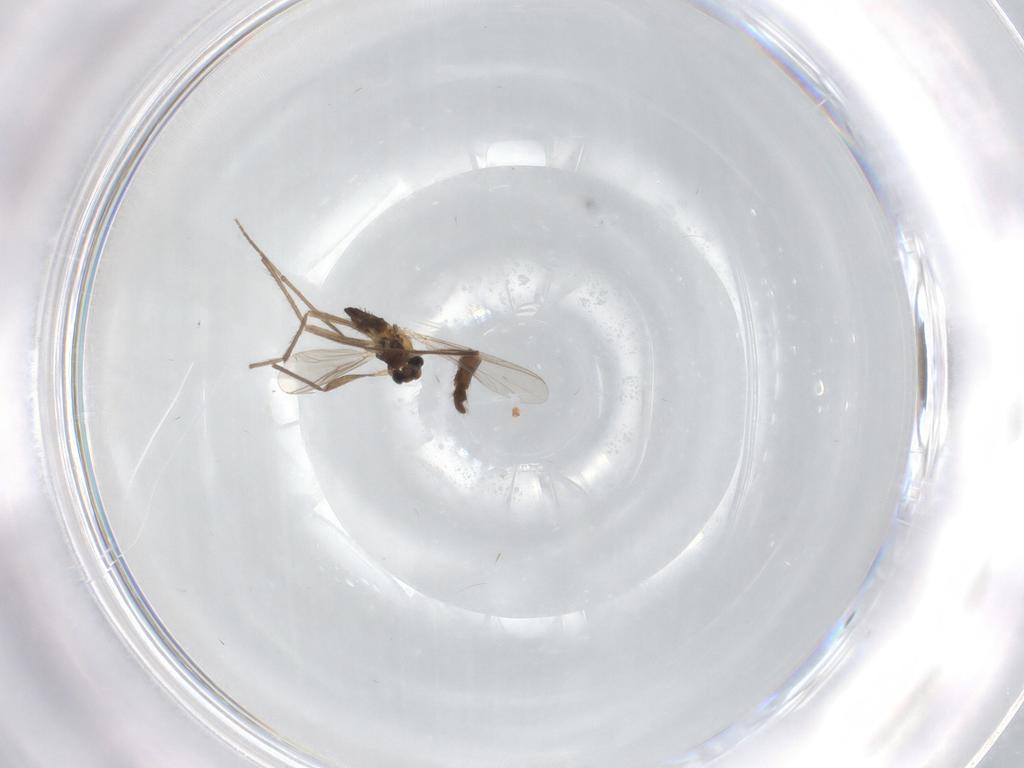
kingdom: Animalia
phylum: Arthropoda
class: Insecta
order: Diptera
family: Chironomidae
